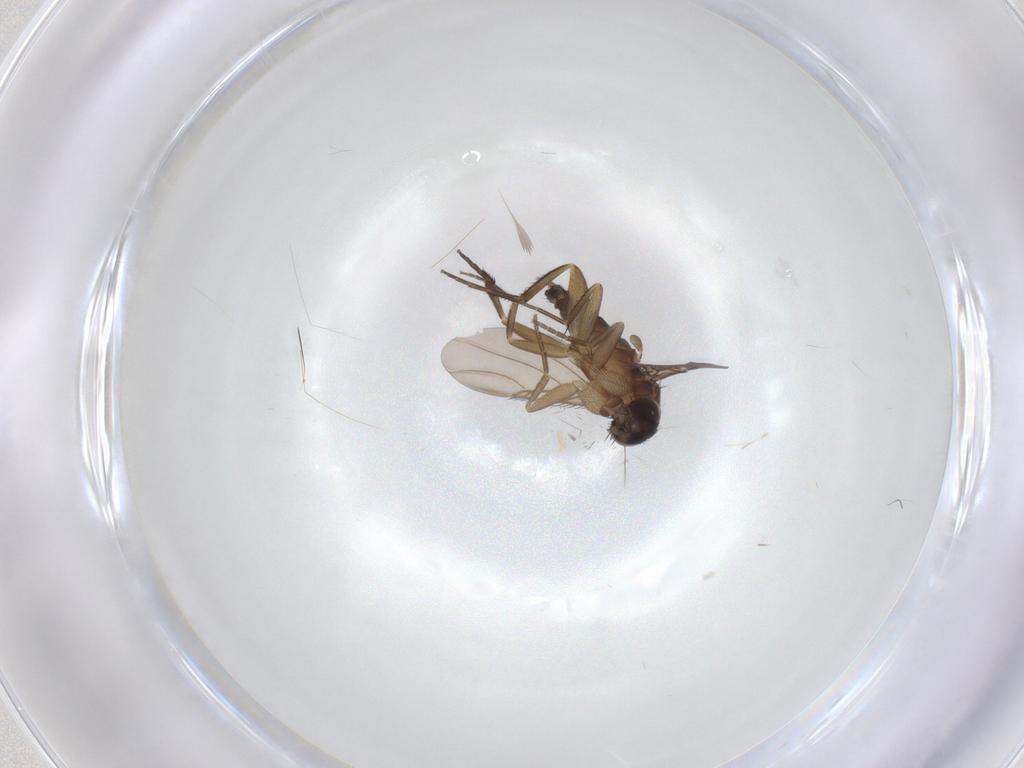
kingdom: Animalia
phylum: Arthropoda
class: Insecta
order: Diptera
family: Phoridae
